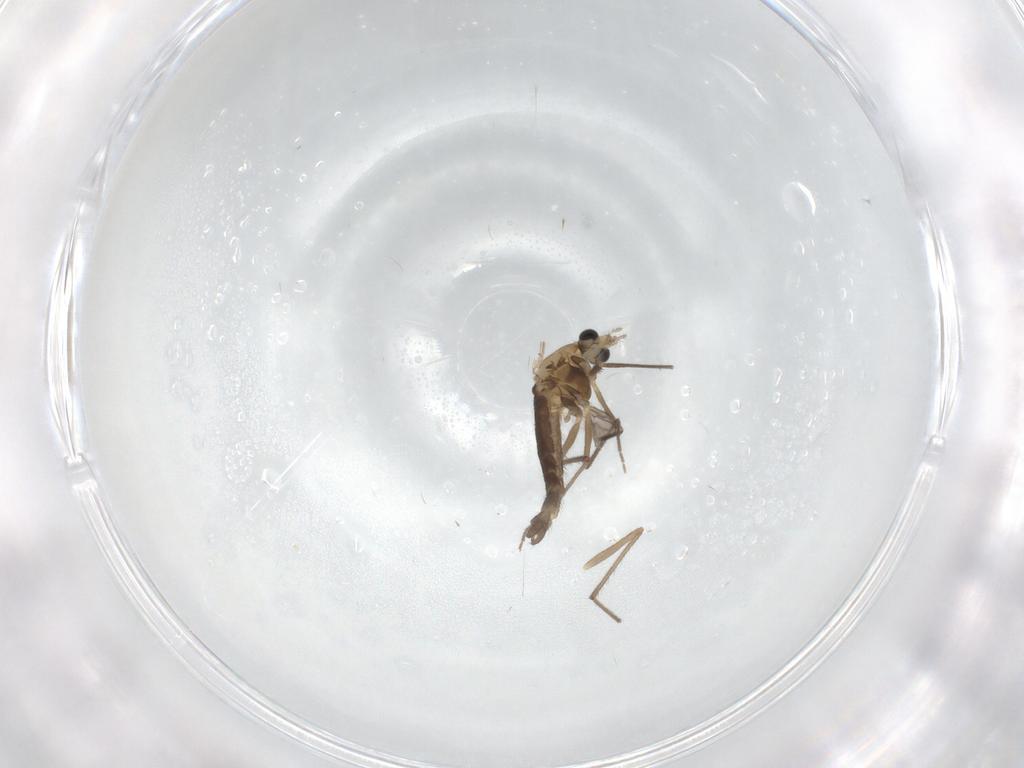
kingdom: Animalia
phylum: Arthropoda
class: Insecta
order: Diptera
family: Chironomidae
